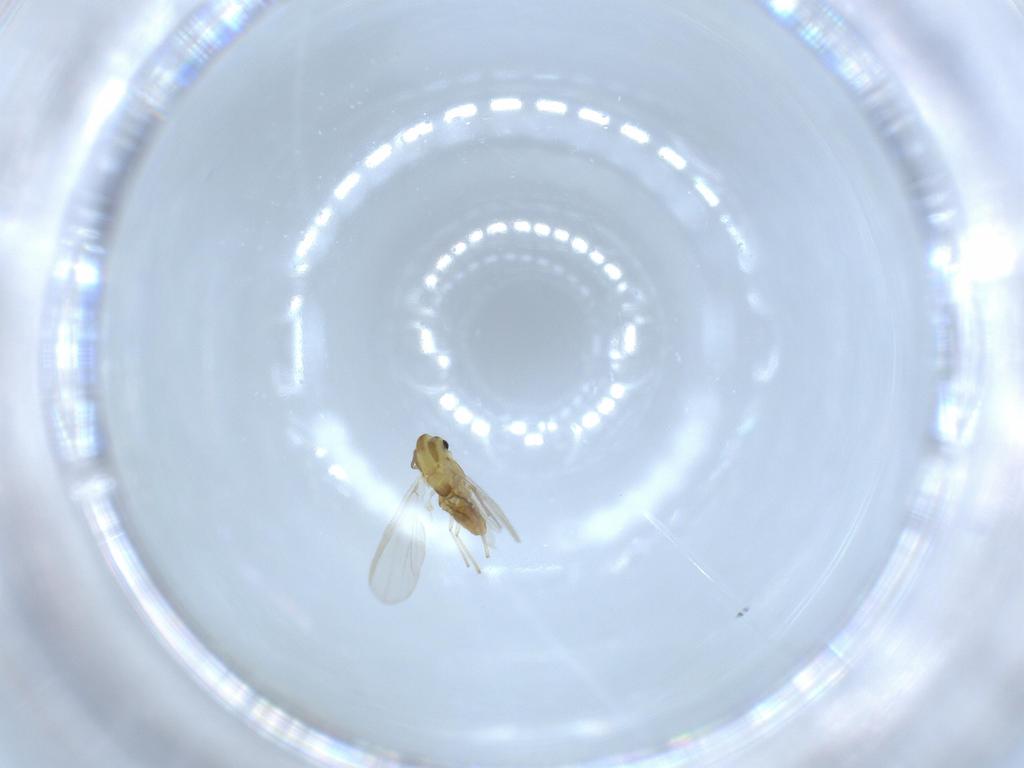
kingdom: Animalia
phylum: Arthropoda
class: Insecta
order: Diptera
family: Chironomidae
